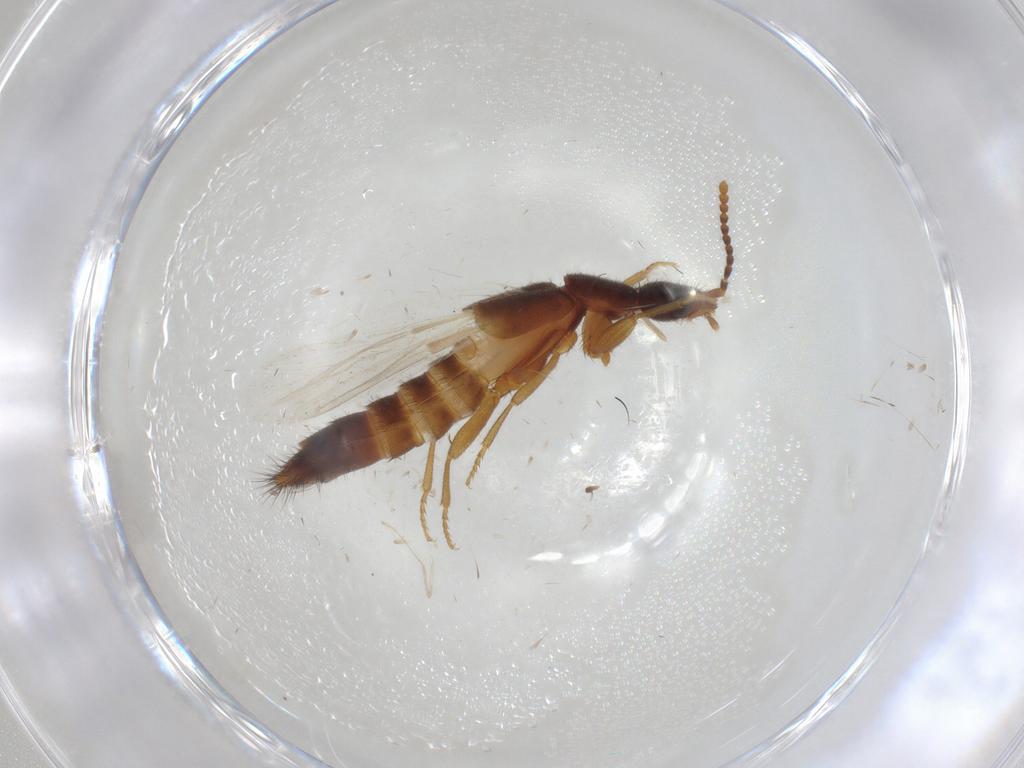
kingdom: Animalia
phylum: Arthropoda
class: Insecta
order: Coleoptera
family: Staphylinidae
